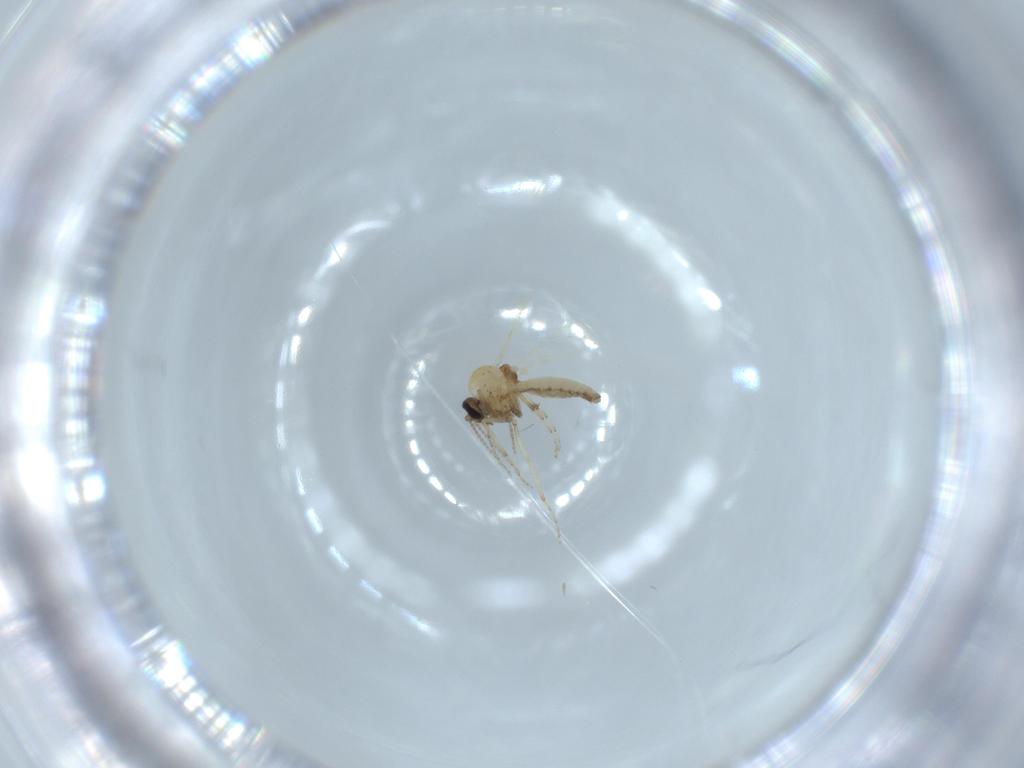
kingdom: Animalia
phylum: Arthropoda
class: Insecta
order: Diptera
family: Ceratopogonidae
